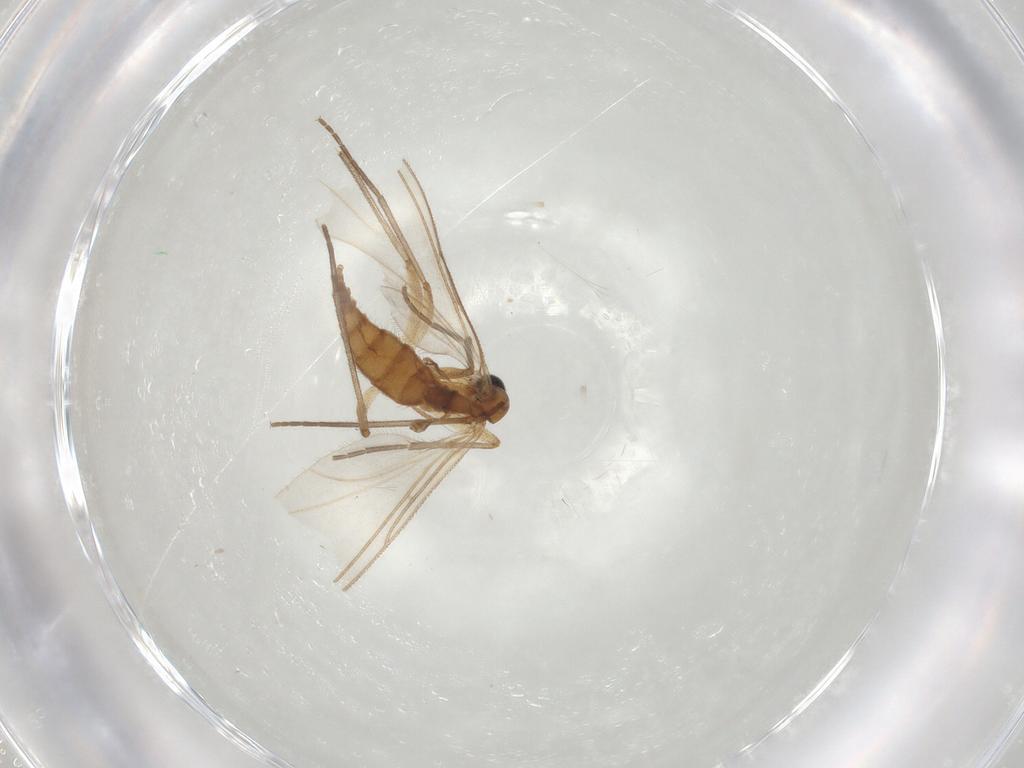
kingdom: Animalia
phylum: Arthropoda
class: Insecta
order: Diptera
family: Sciaridae
